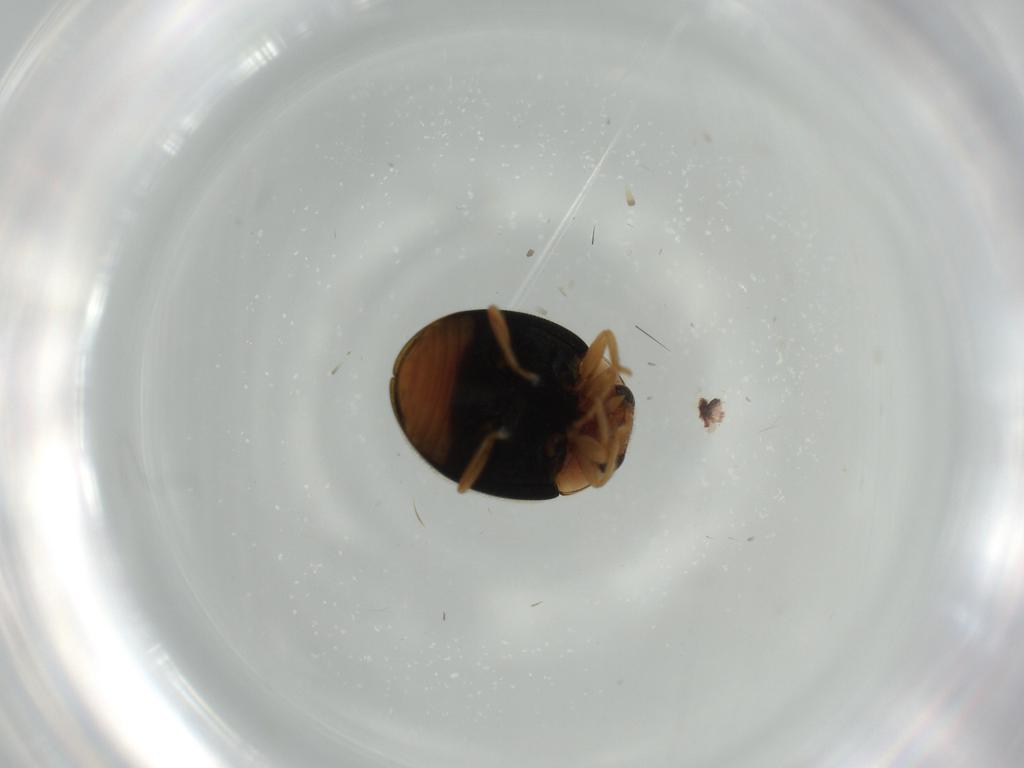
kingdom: Animalia
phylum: Arthropoda
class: Insecta
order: Coleoptera
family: Coccinellidae
